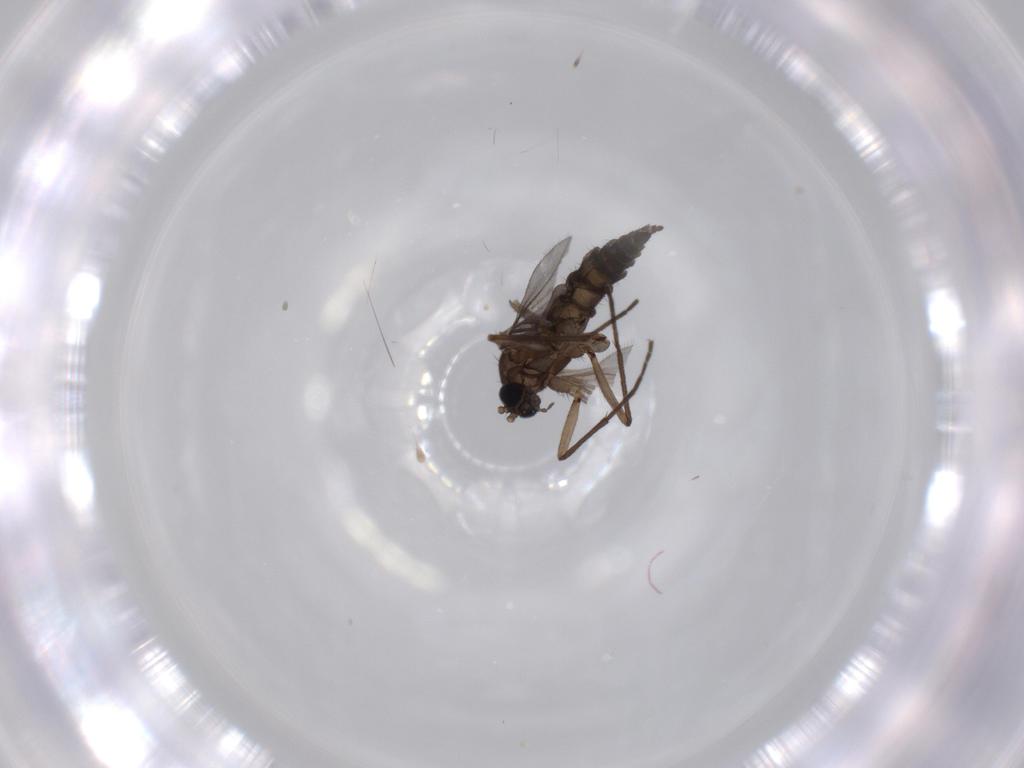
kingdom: Animalia
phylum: Arthropoda
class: Insecta
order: Diptera
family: Sciaridae
